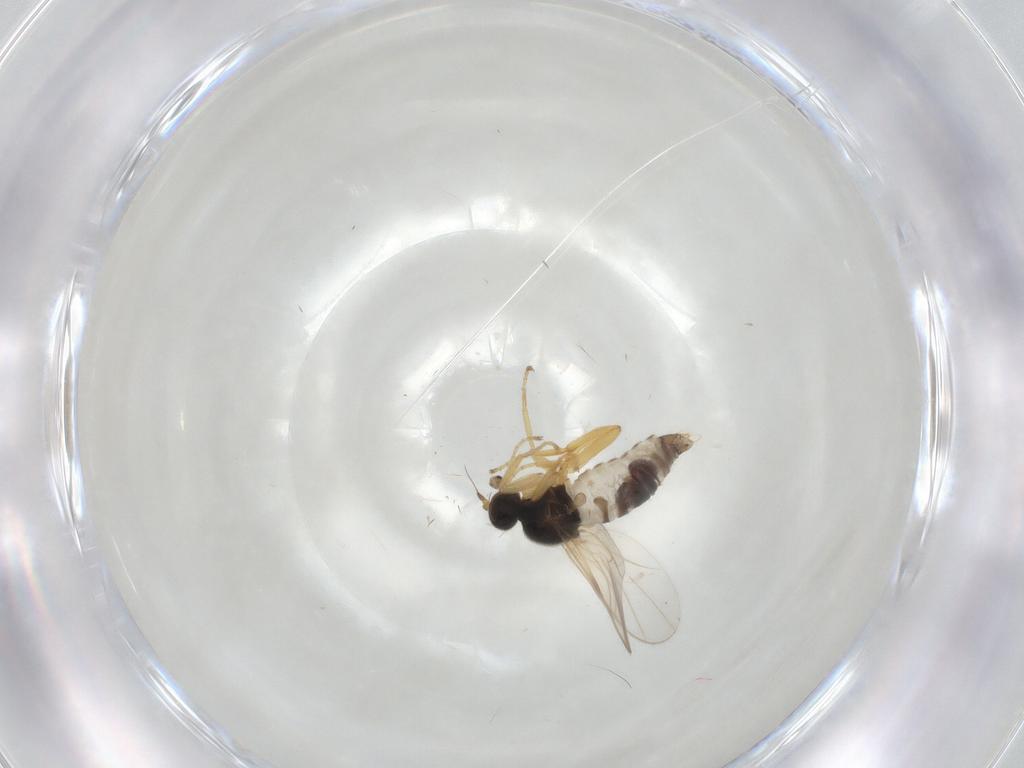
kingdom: Animalia
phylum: Arthropoda
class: Insecta
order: Diptera
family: Hybotidae
